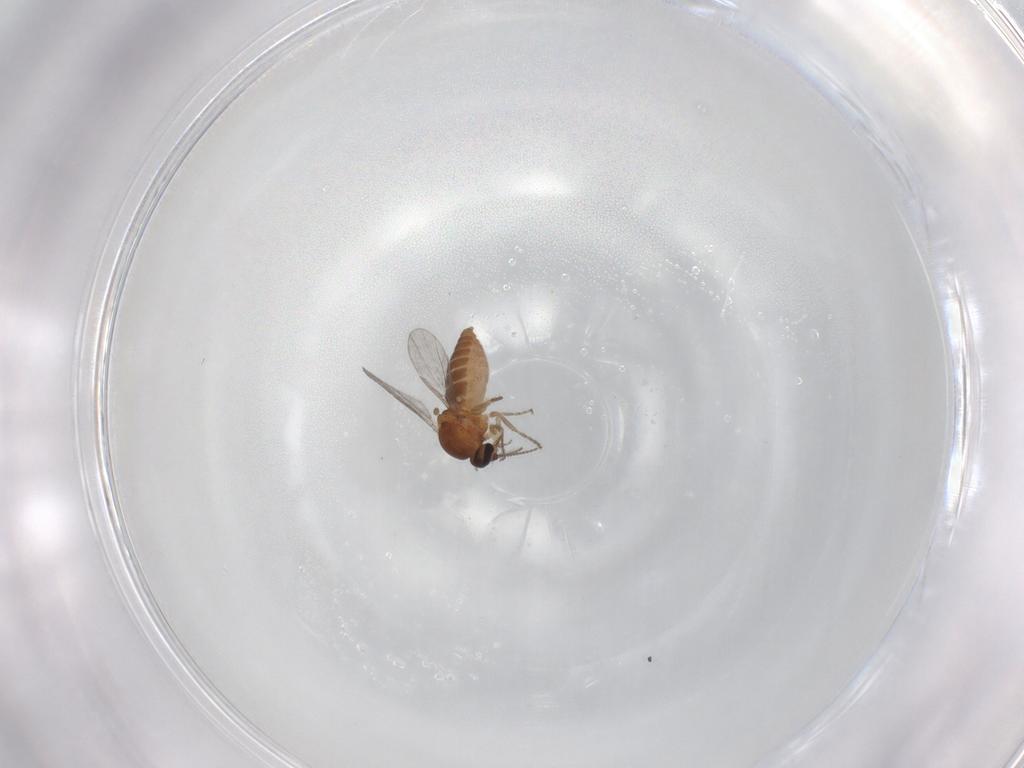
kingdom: Animalia
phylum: Arthropoda
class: Insecta
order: Diptera
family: Ceratopogonidae
